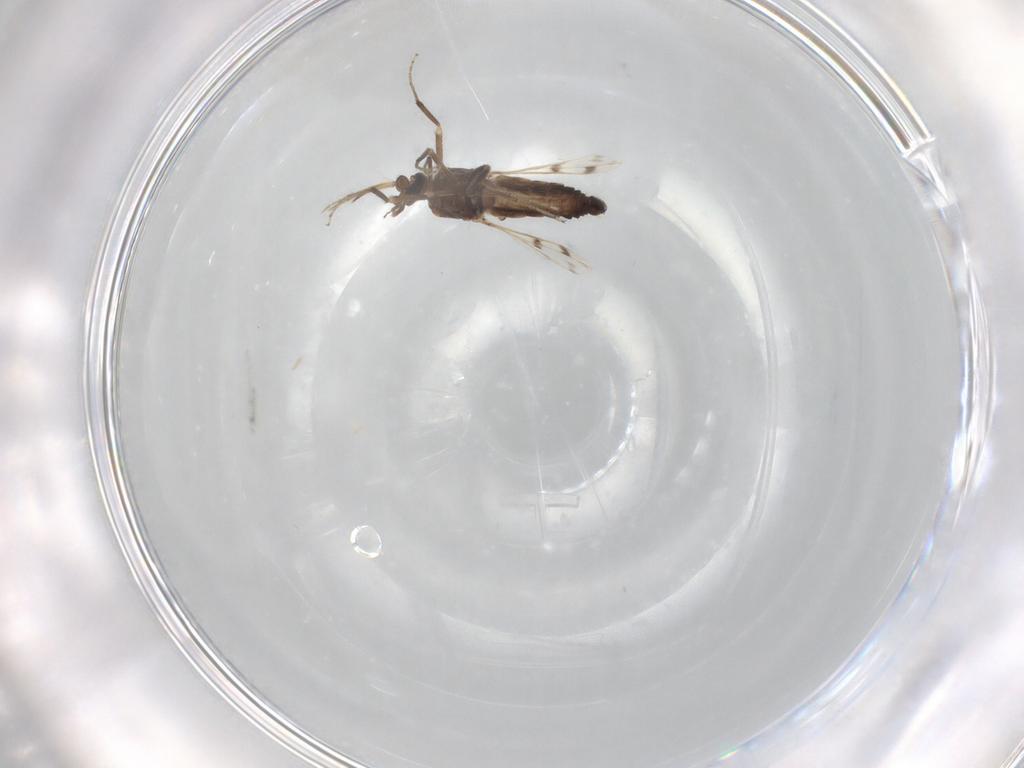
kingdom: Animalia
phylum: Arthropoda
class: Insecta
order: Diptera
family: Ceratopogonidae
